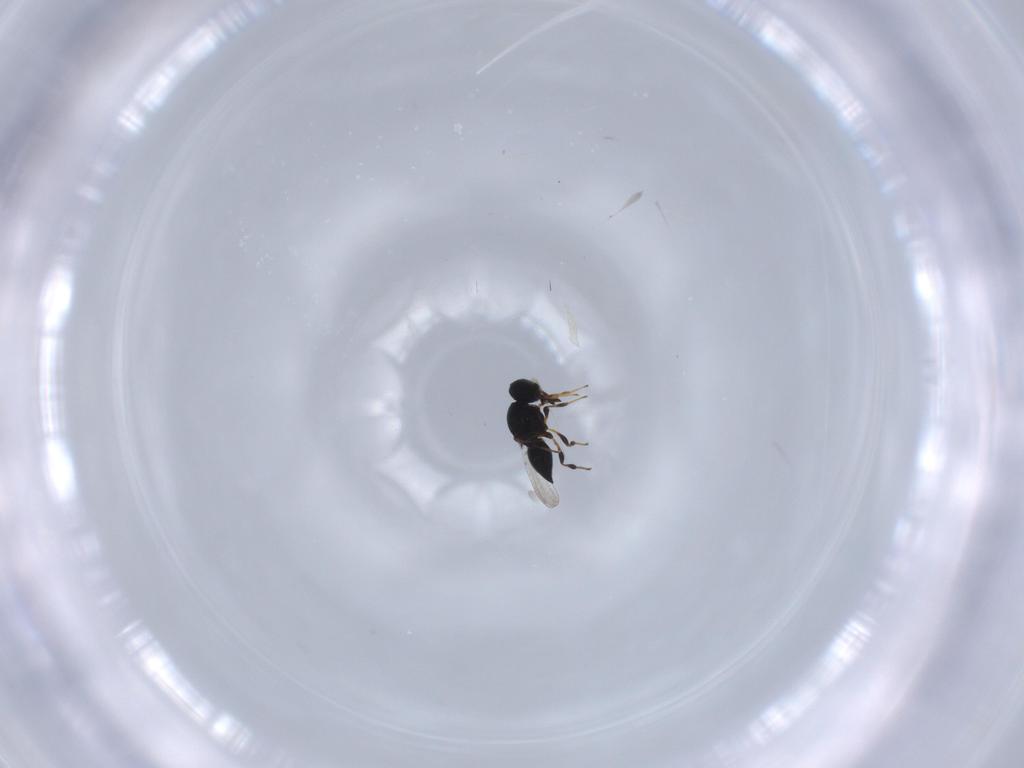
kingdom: Animalia
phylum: Arthropoda
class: Insecta
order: Hymenoptera
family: Platygastridae
